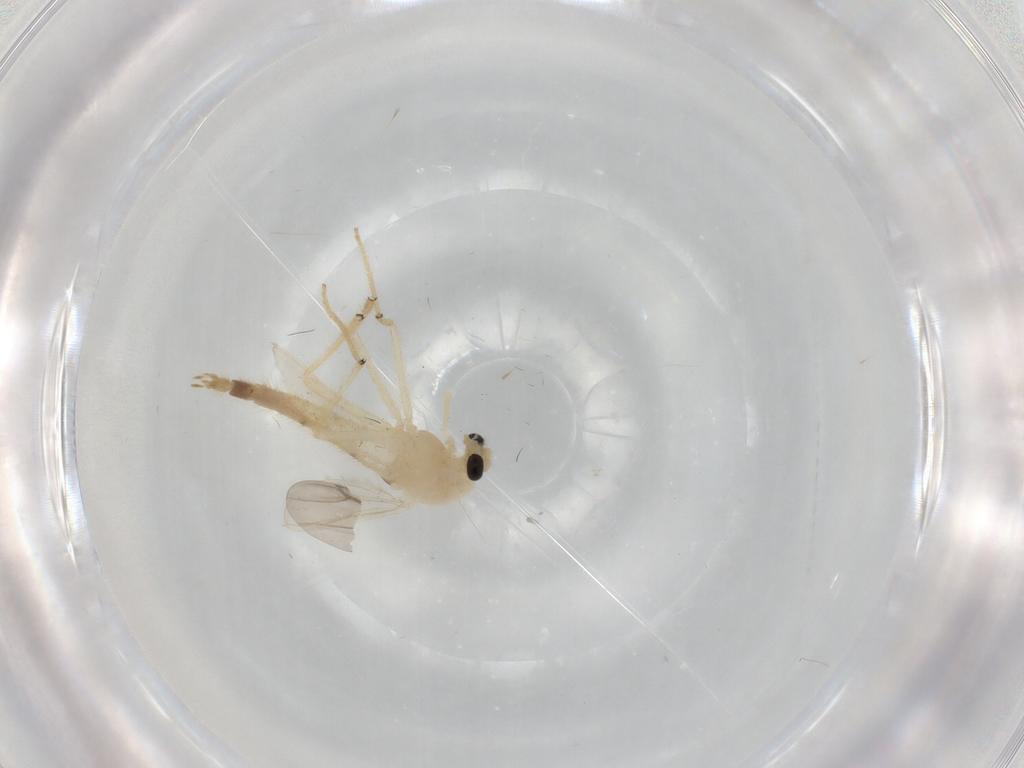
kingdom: Animalia
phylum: Arthropoda
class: Insecta
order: Diptera
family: Chironomidae
